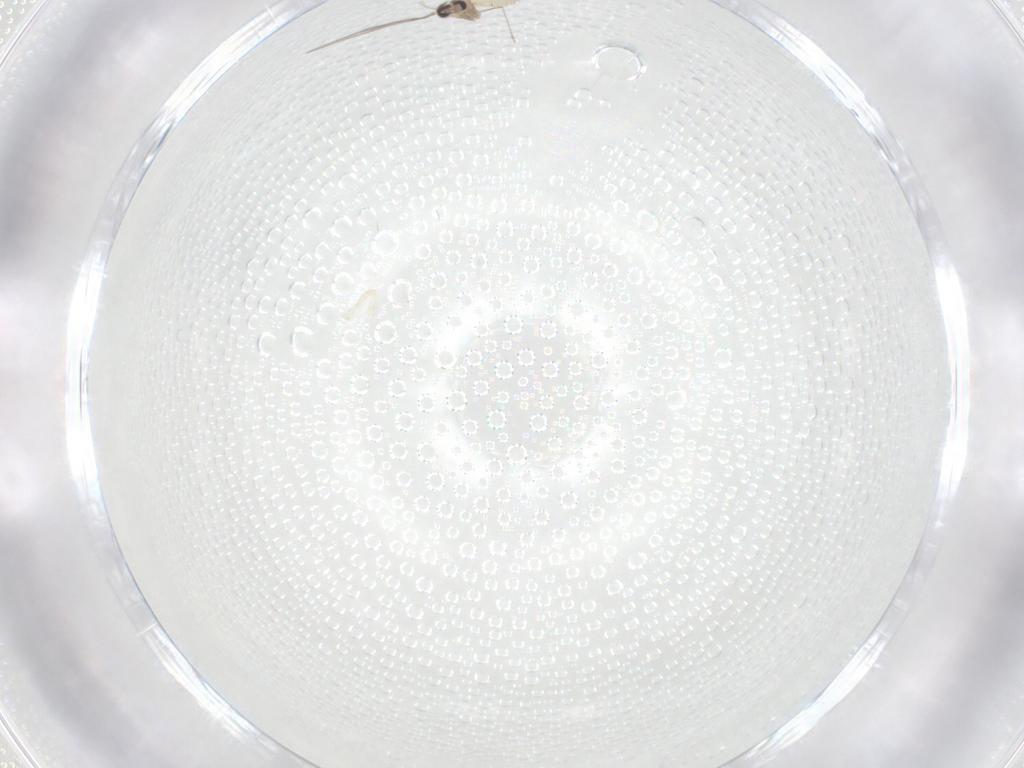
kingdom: Animalia
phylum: Arthropoda
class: Insecta
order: Diptera
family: Cecidomyiidae
